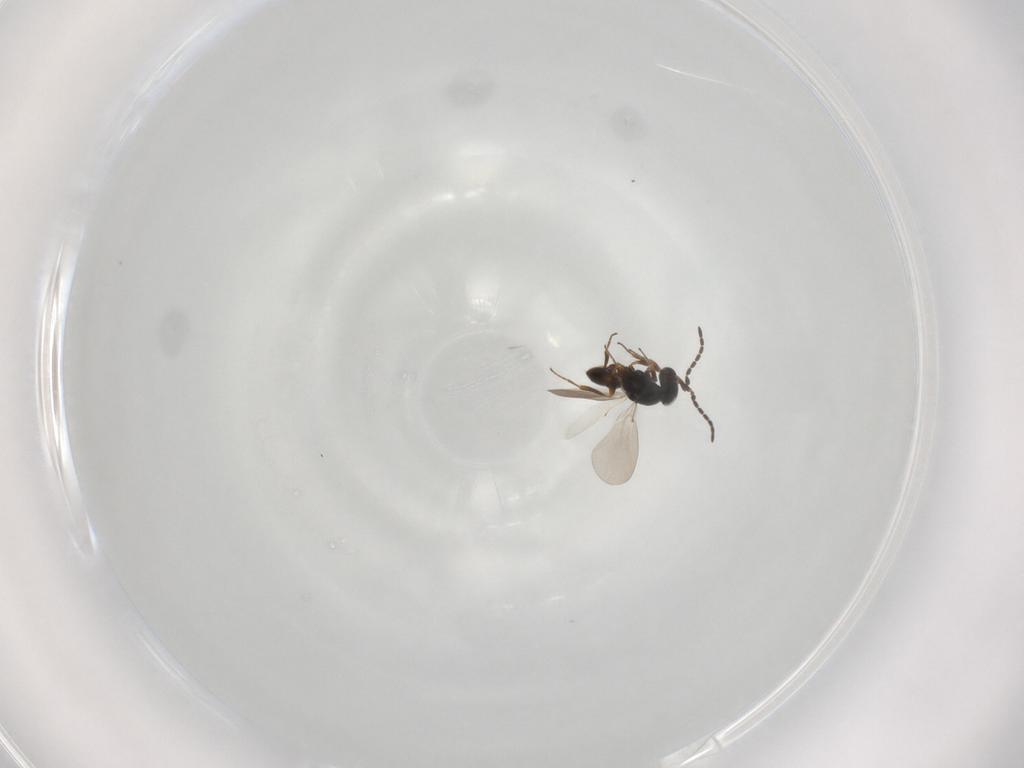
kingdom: Animalia
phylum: Arthropoda
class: Insecta
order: Hymenoptera
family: Platygastridae
